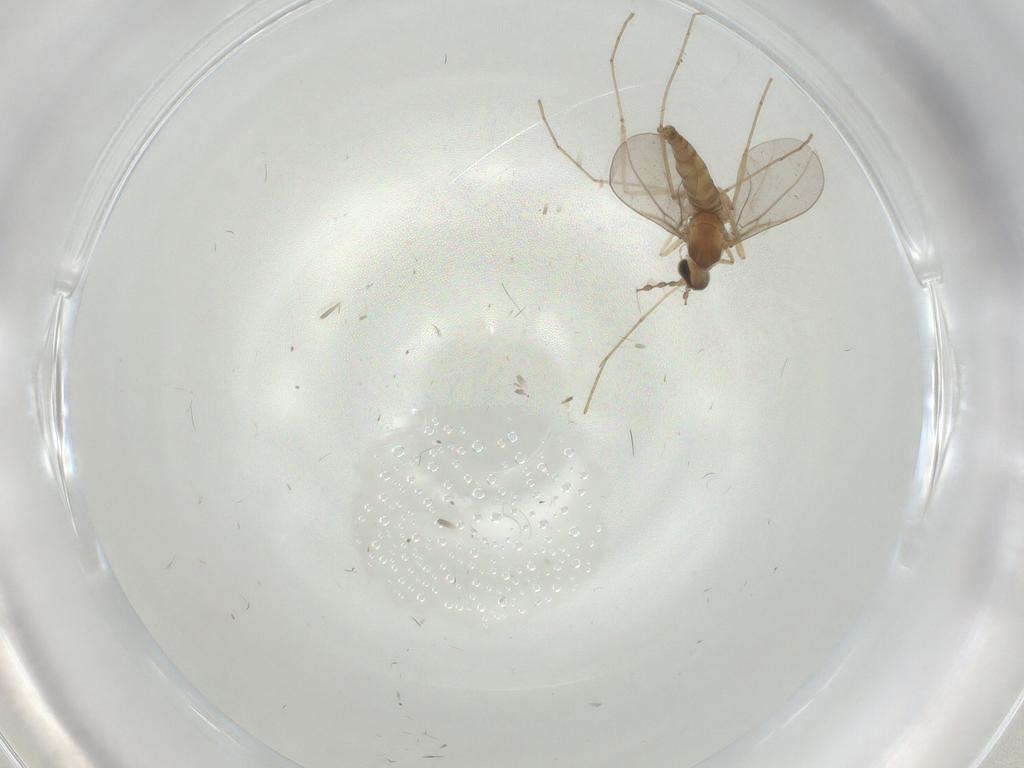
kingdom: Animalia
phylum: Arthropoda
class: Insecta
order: Diptera
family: Cecidomyiidae
